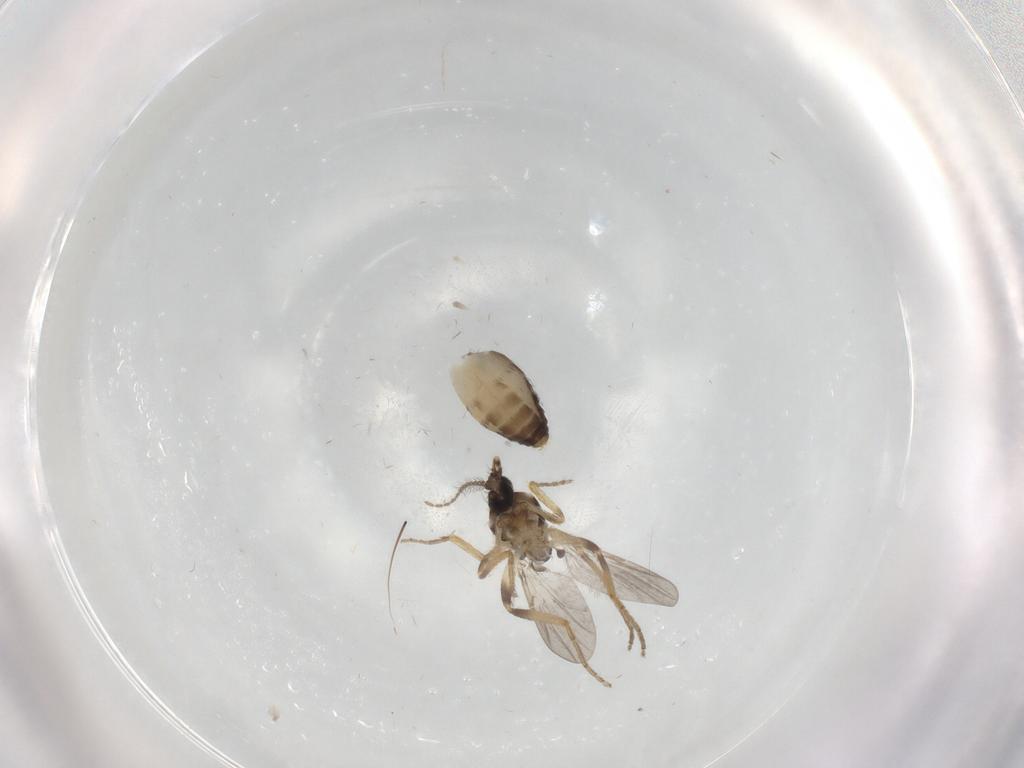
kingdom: Animalia
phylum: Arthropoda
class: Insecta
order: Diptera
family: Ceratopogonidae
